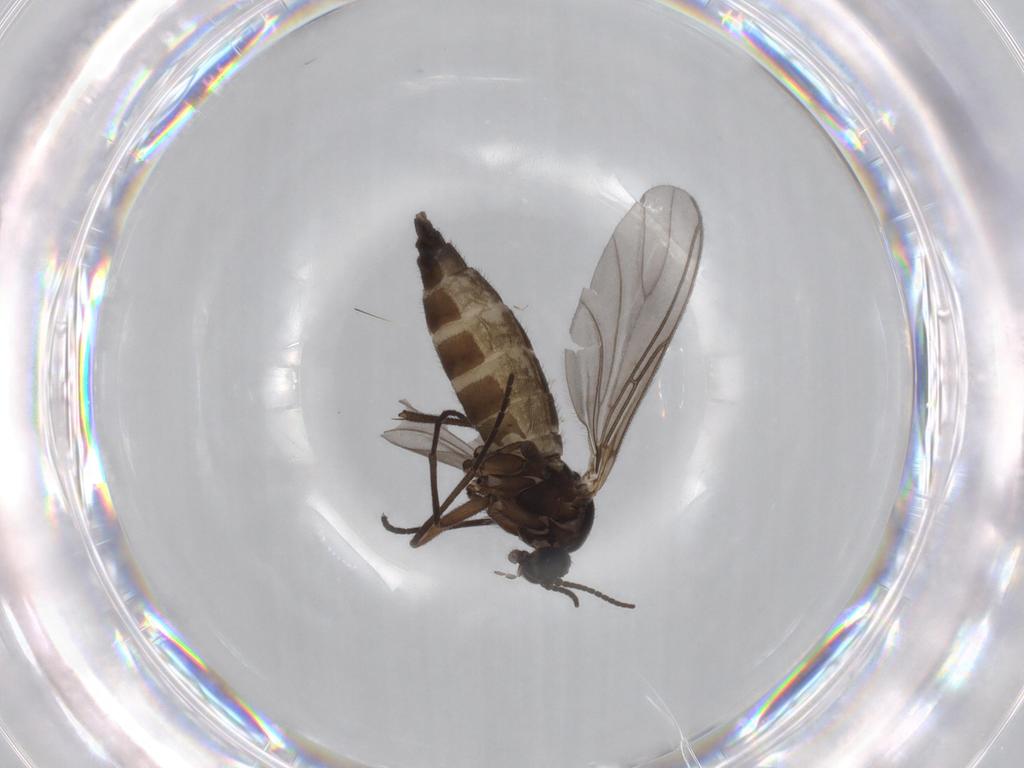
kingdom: Animalia
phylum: Arthropoda
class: Insecta
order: Diptera
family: Sciaridae
